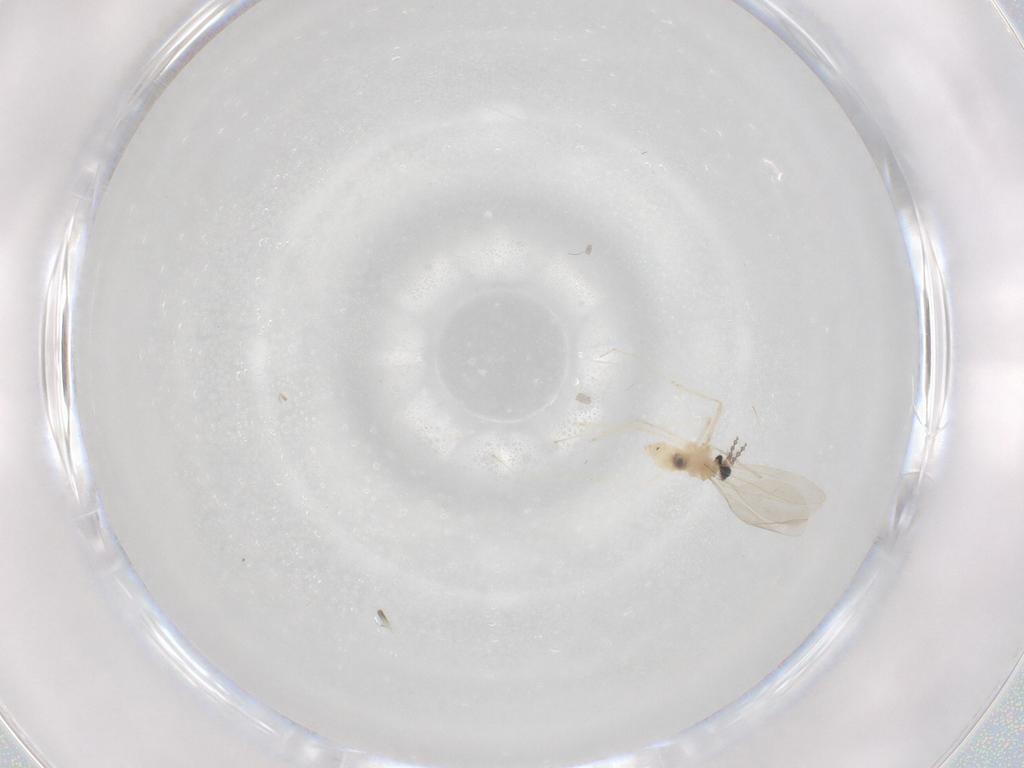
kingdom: Animalia
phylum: Arthropoda
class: Insecta
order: Diptera
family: Cecidomyiidae
